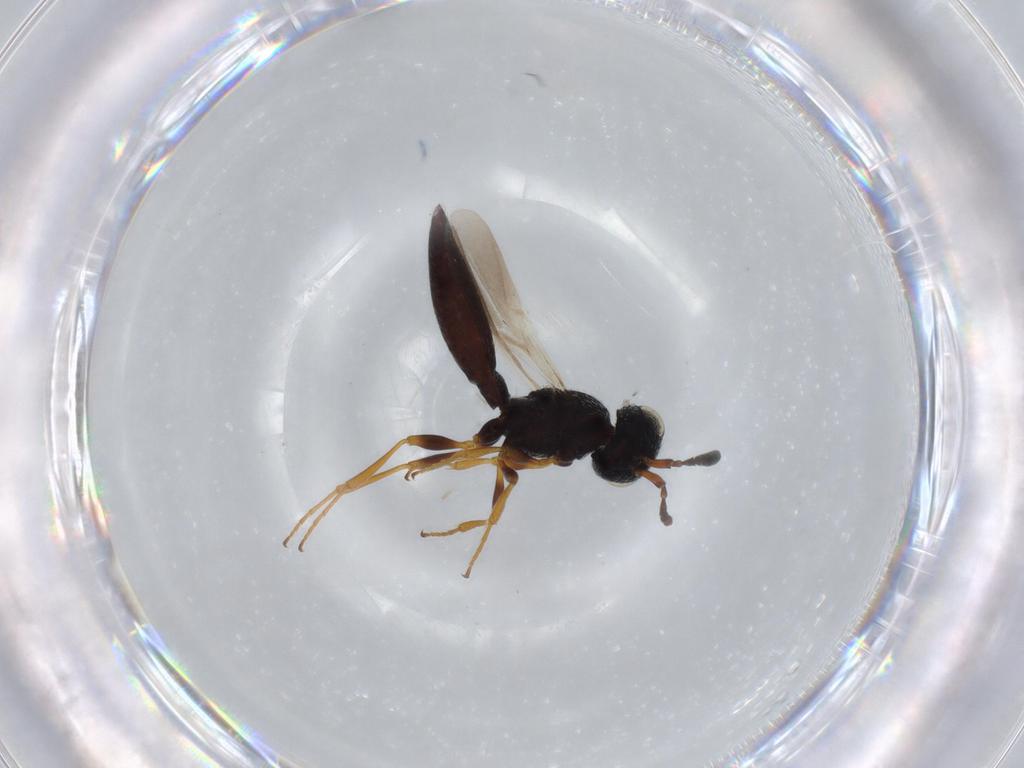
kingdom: Animalia
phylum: Arthropoda
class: Insecta
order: Hymenoptera
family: Scelionidae
